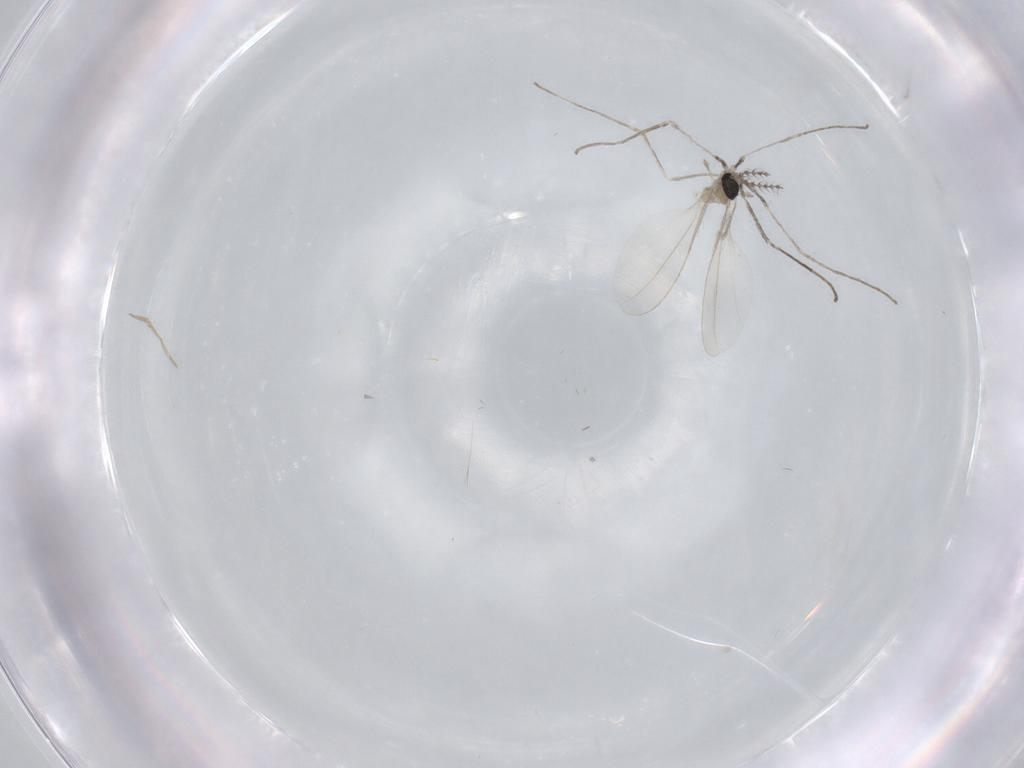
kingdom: Animalia
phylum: Arthropoda
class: Insecta
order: Diptera
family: Cecidomyiidae
